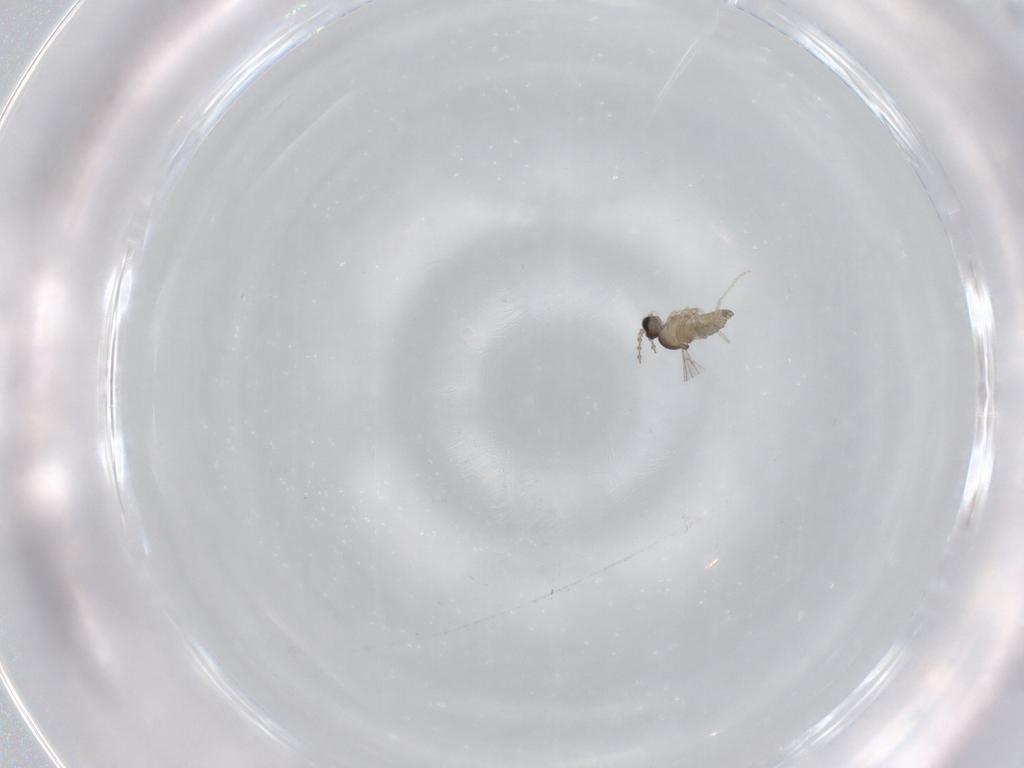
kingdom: Animalia
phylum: Arthropoda
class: Insecta
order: Diptera
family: Cecidomyiidae
